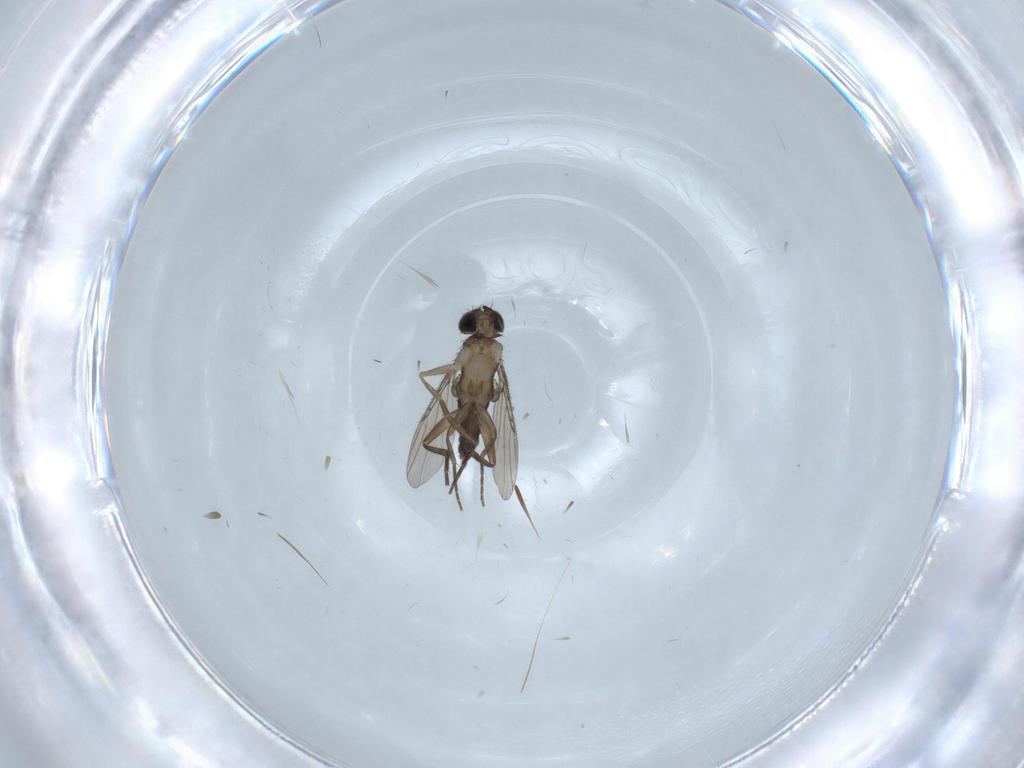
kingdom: Animalia
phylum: Arthropoda
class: Insecta
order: Diptera
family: Phoridae
